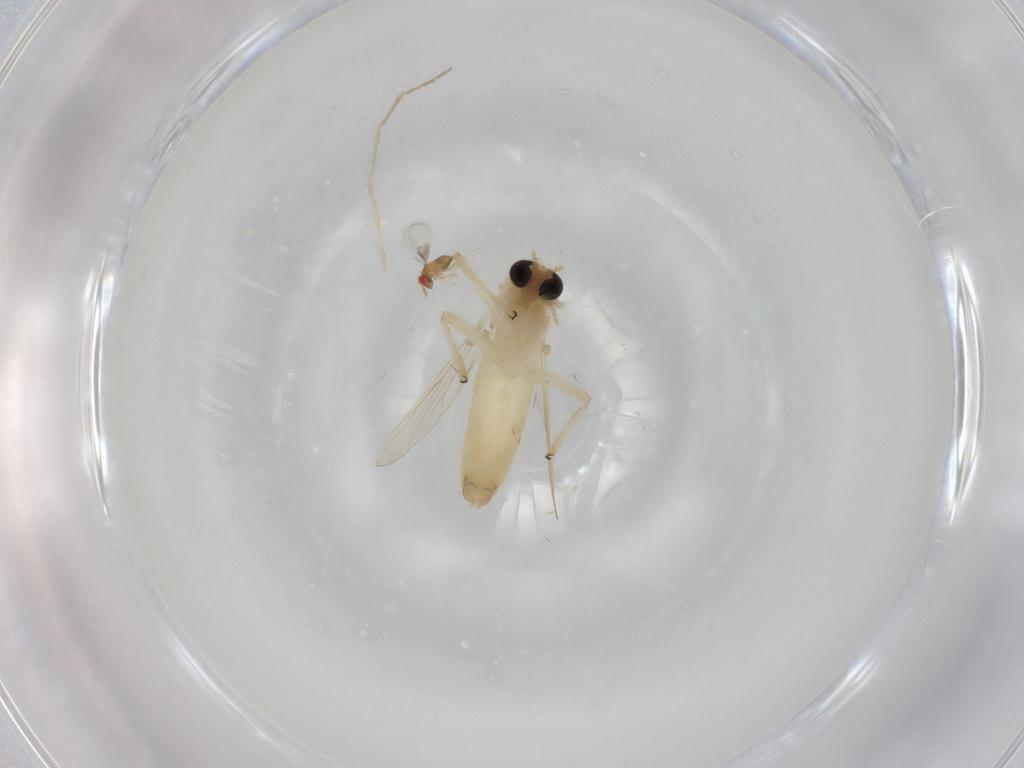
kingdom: Animalia
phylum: Arthropoda
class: Insecta
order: Diptera
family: Chironomidae
